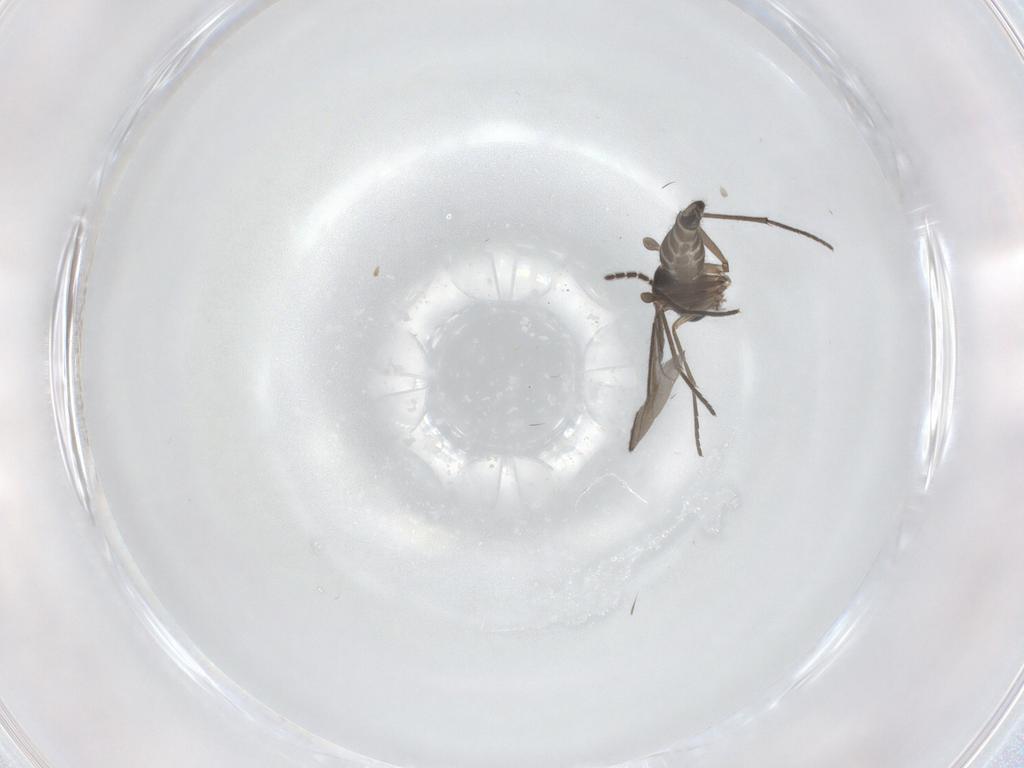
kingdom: Animalia
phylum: Arthropoda
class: Insecta
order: Diptera
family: Sciaridae
